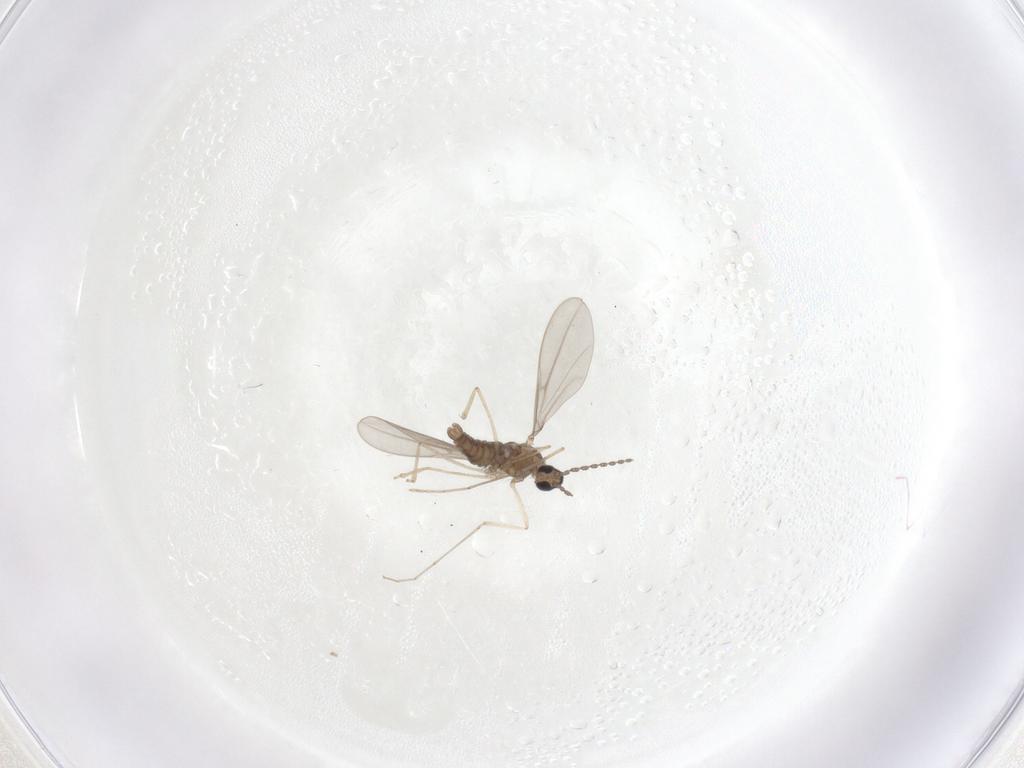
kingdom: Animalia
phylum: Arthropoda
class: Insecta
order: Diptera
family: Cecidomyiidae
